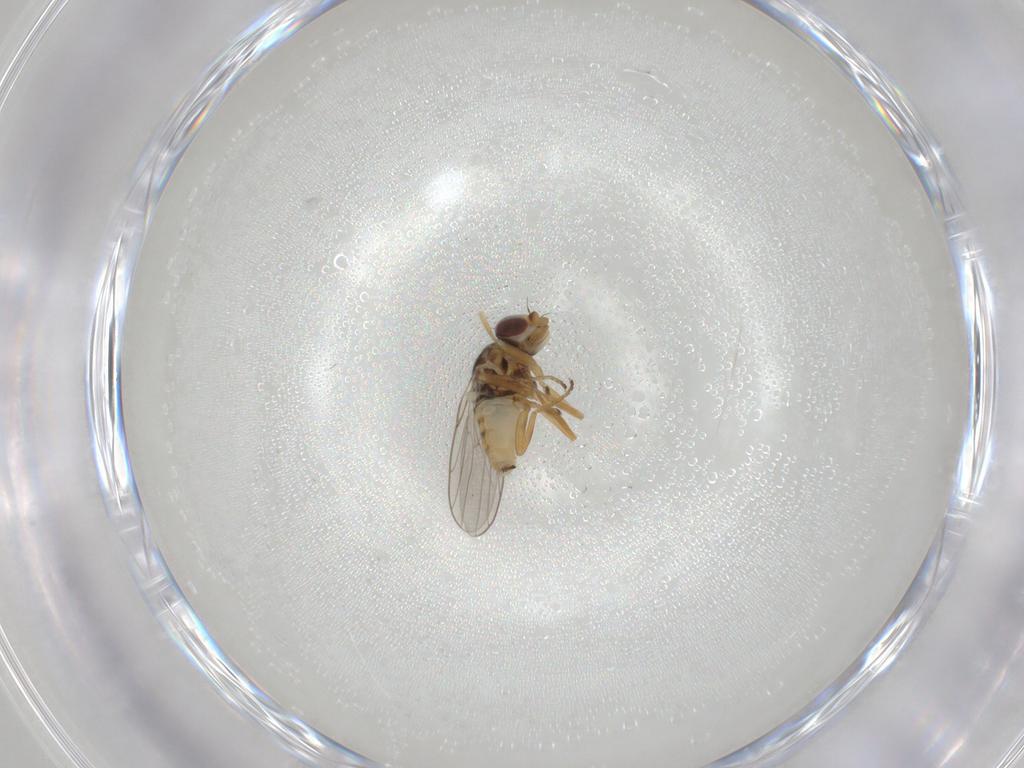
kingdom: Animalia
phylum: Arthropoda
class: Insecta
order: Diptera
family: Chloropidae
